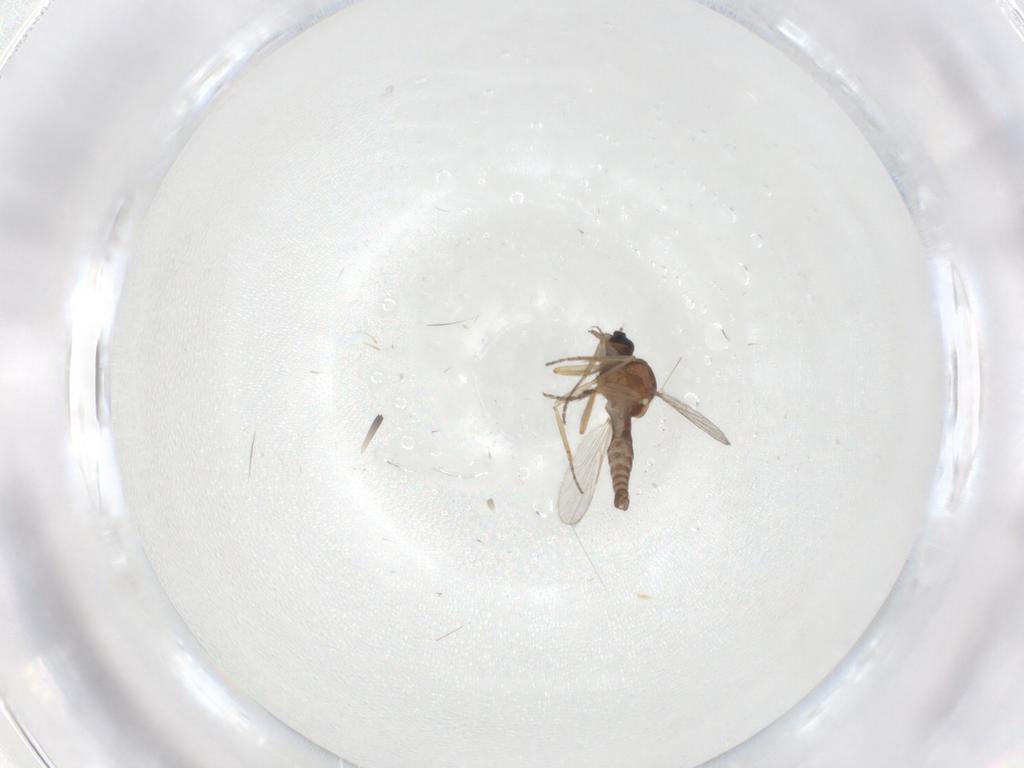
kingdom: Animalia
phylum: Arthropoda
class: Insecta
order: Diptera
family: Ceratopogonidae
